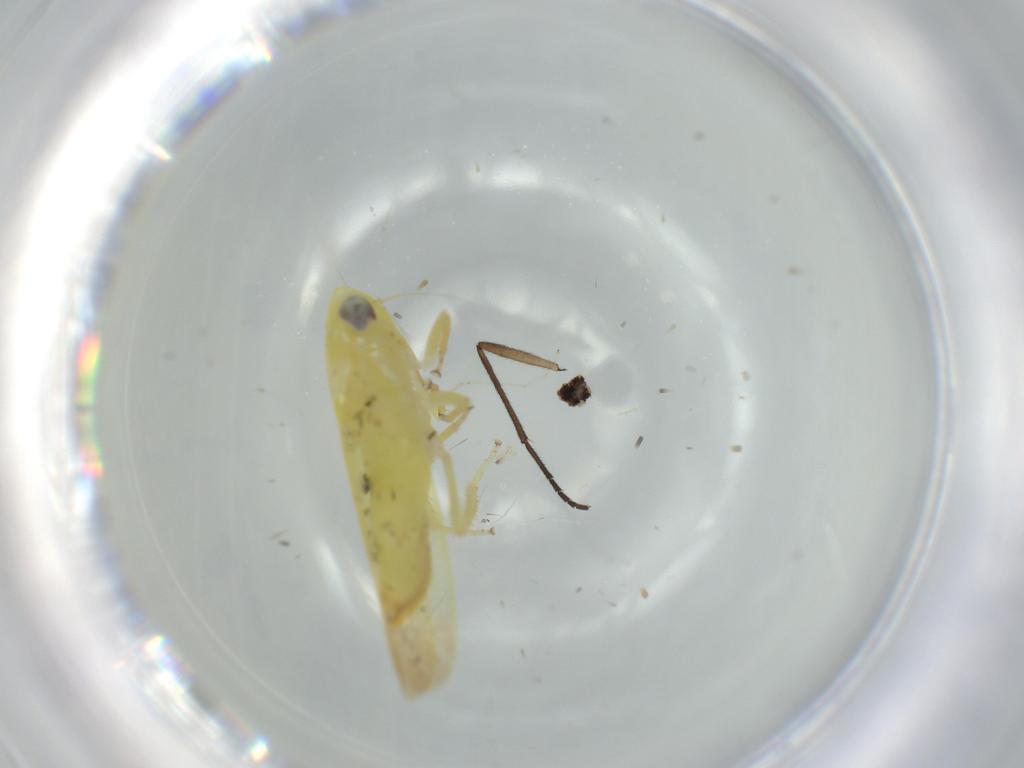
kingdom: Animalia
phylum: Arthropoda
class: Insecta
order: Hemiptera
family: Cicadellidae
